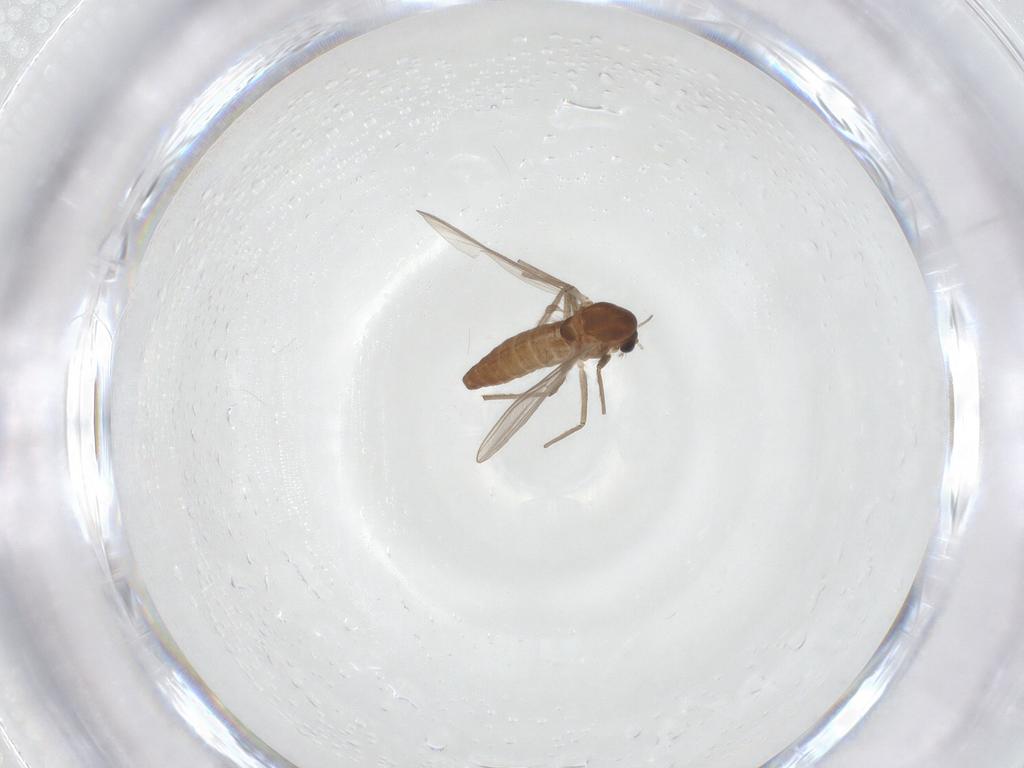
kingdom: Animalia
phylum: Arthropoda
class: Insecta
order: Diptera
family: Chironomidae
